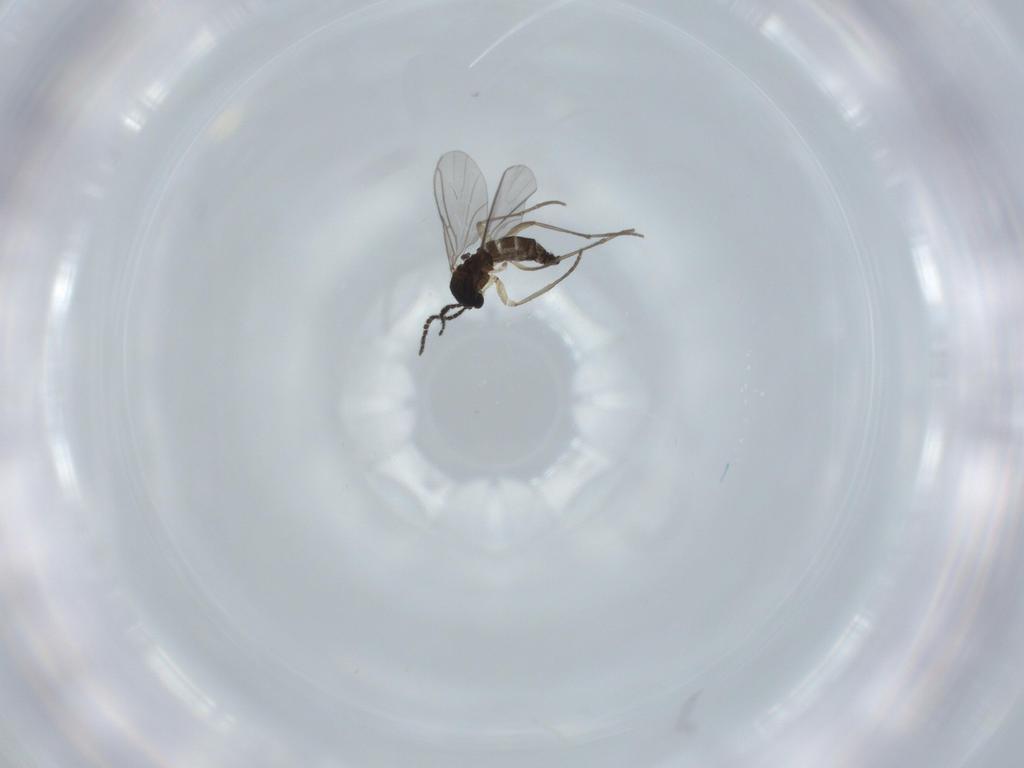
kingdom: Animalia
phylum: Arthropoda
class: Insecta
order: Diptera
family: Sciaridae
